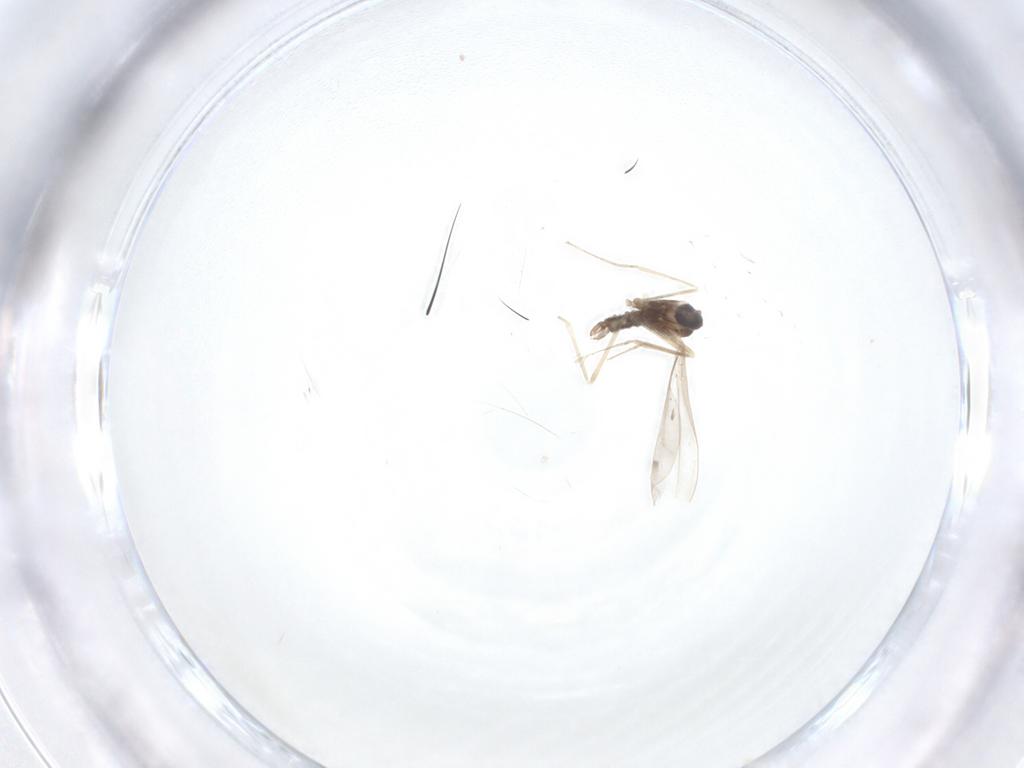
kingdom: Animalia
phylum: Arthropoda
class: Insecta
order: Diptera
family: Cecidomyiidae
